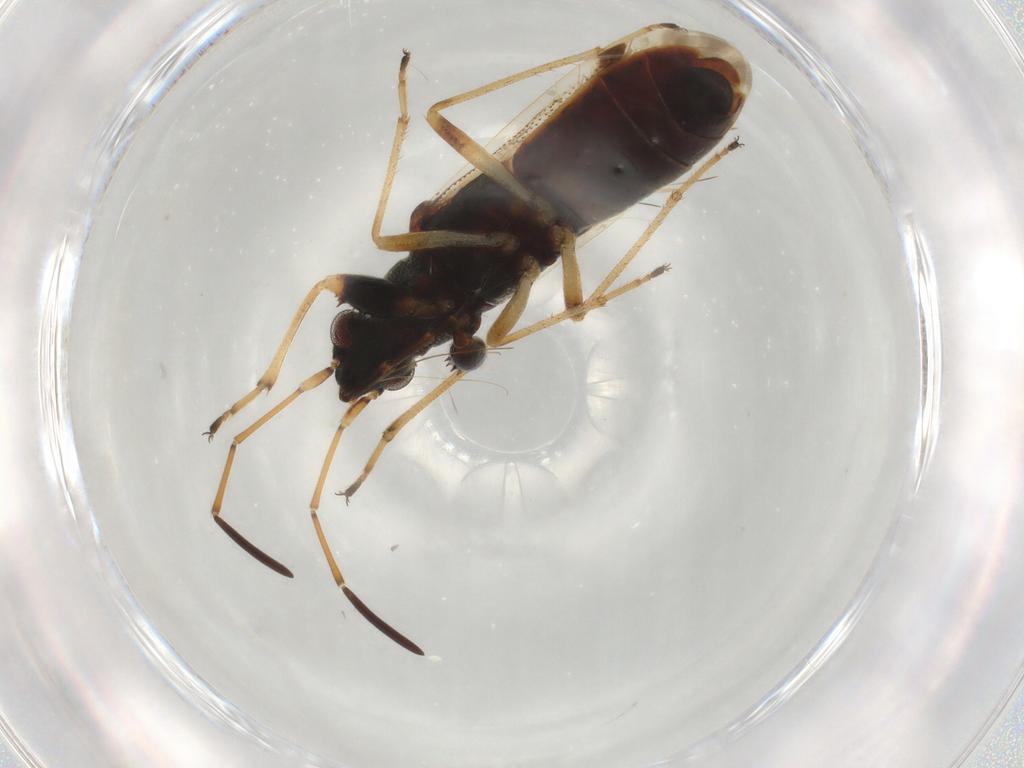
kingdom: Animalia
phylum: Arthropoda
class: Insecta
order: Hemiptera
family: Rhyparochromidae
